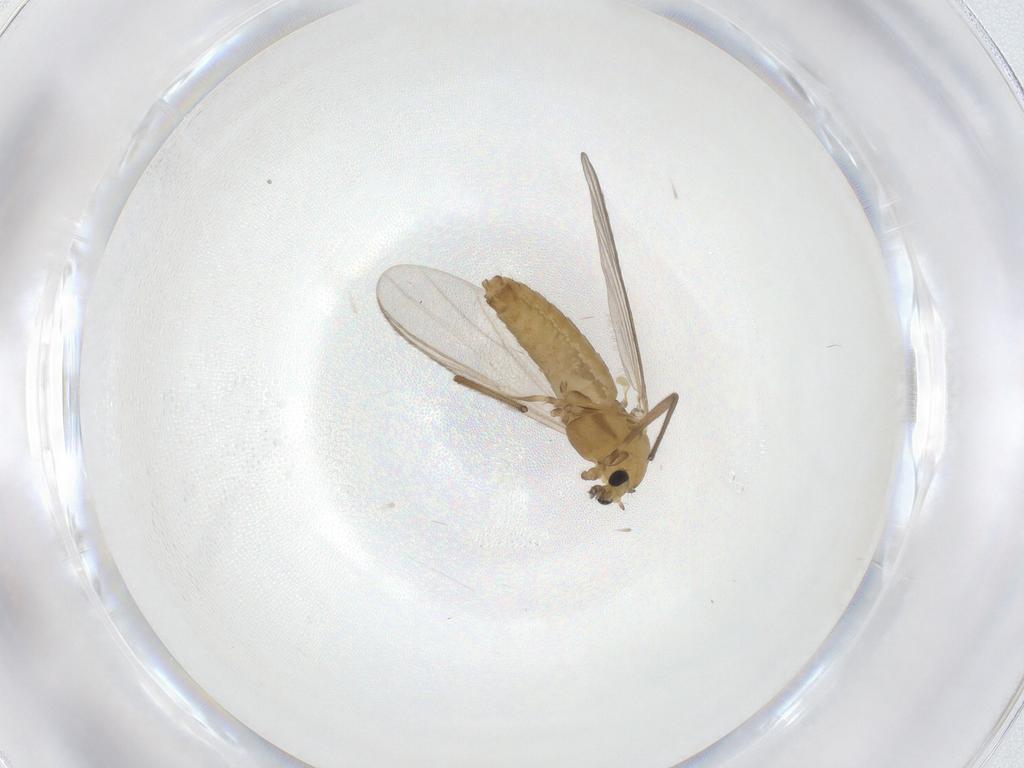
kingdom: Animalia
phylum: Arthropoda
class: Insecta
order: Diptera
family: Chironomidae
